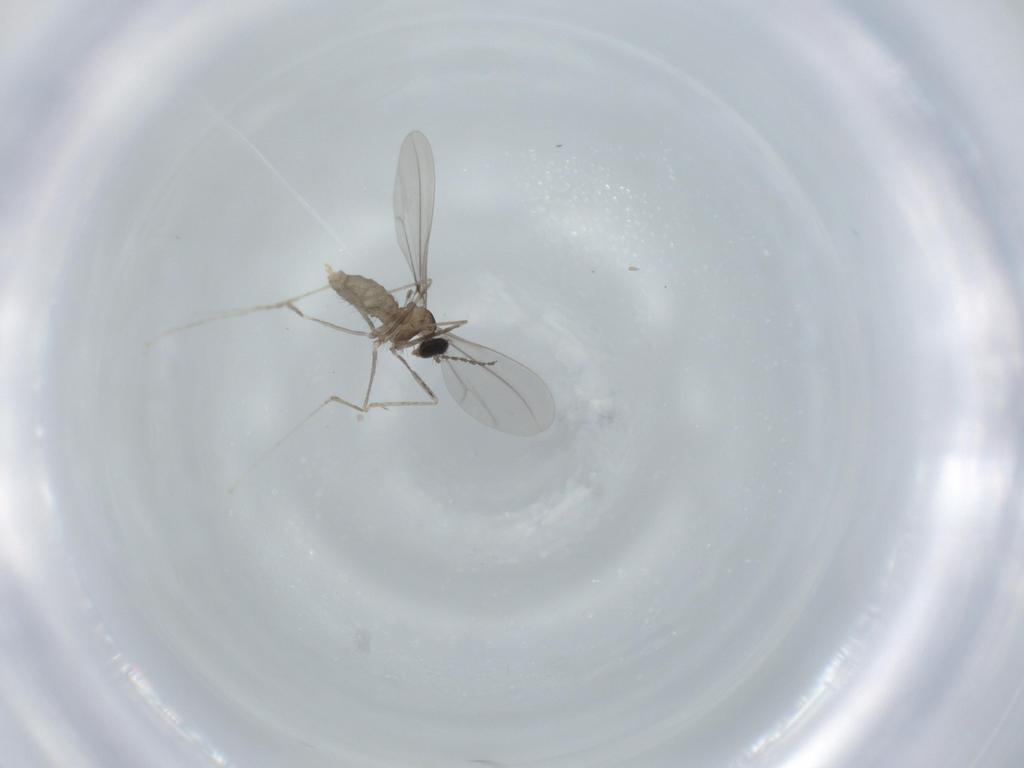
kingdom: Animalia
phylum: Arthropoda
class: Insecta
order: Diptera
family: Cecidomyiidae
